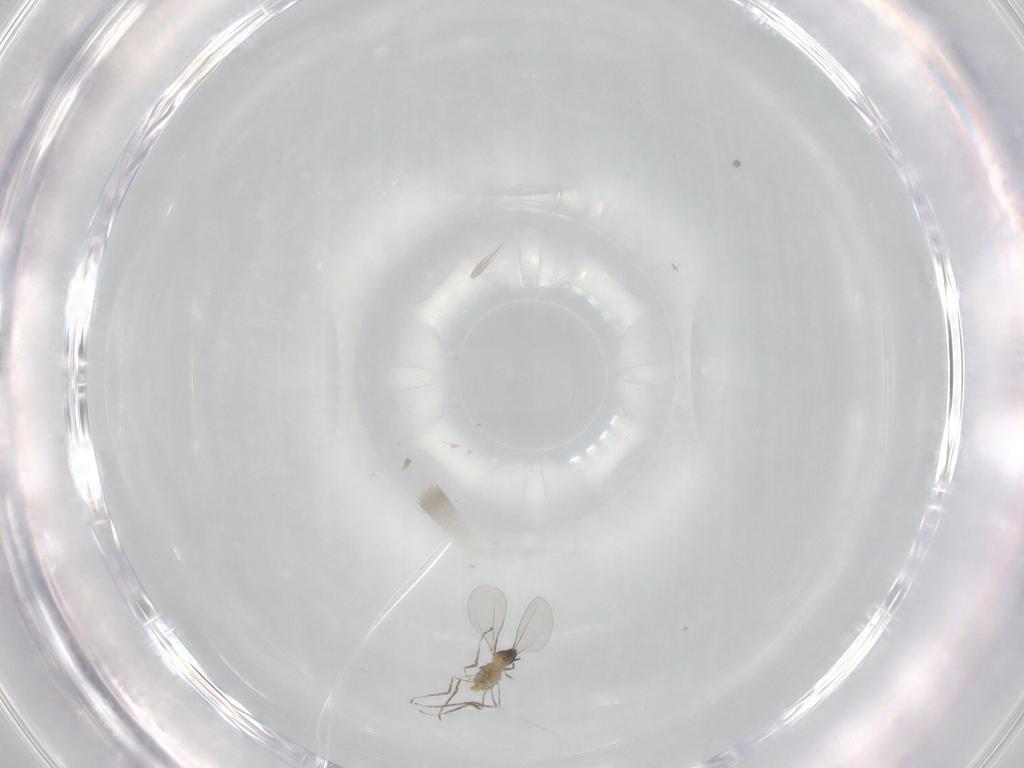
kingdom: Animalia
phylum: Arthropoda
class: Insecta
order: Diptera
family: Cecidomyiidae
